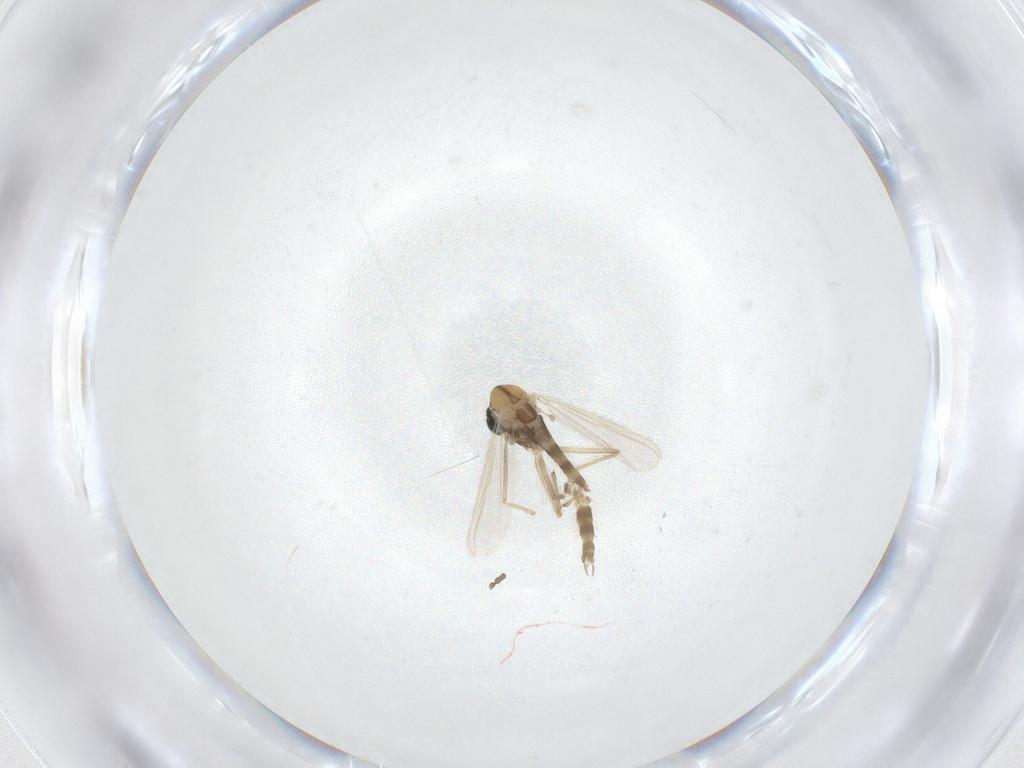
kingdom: Animalia
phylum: Arthropoda
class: Insecta
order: Diptera
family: Chironomidae
